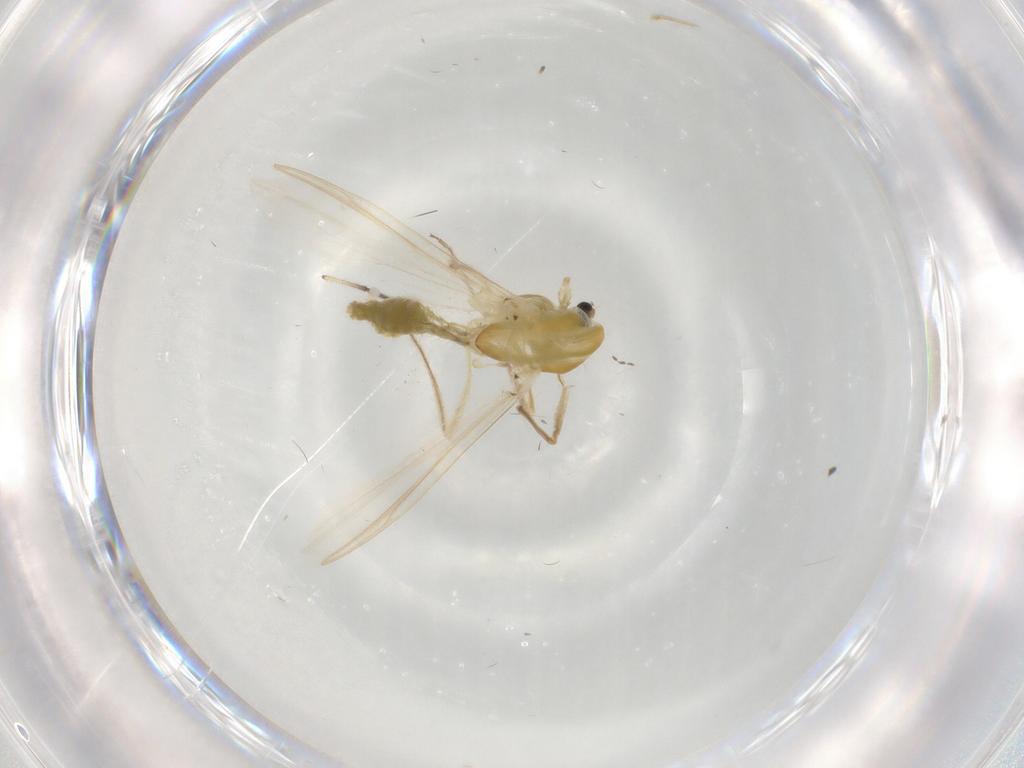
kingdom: Animalia
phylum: Arthropoda
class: Insecta
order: Diptera
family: Chironomidae
